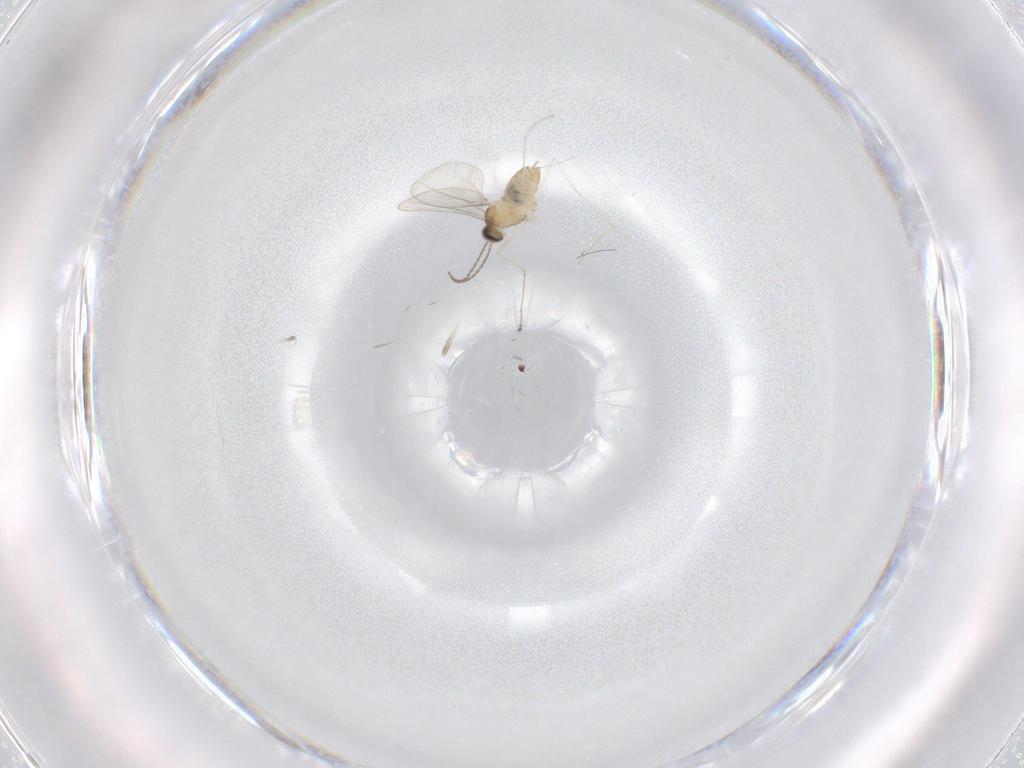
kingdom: Animalia
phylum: Arthropoda
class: Insecta
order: Diptera
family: Cecidomyiidae
